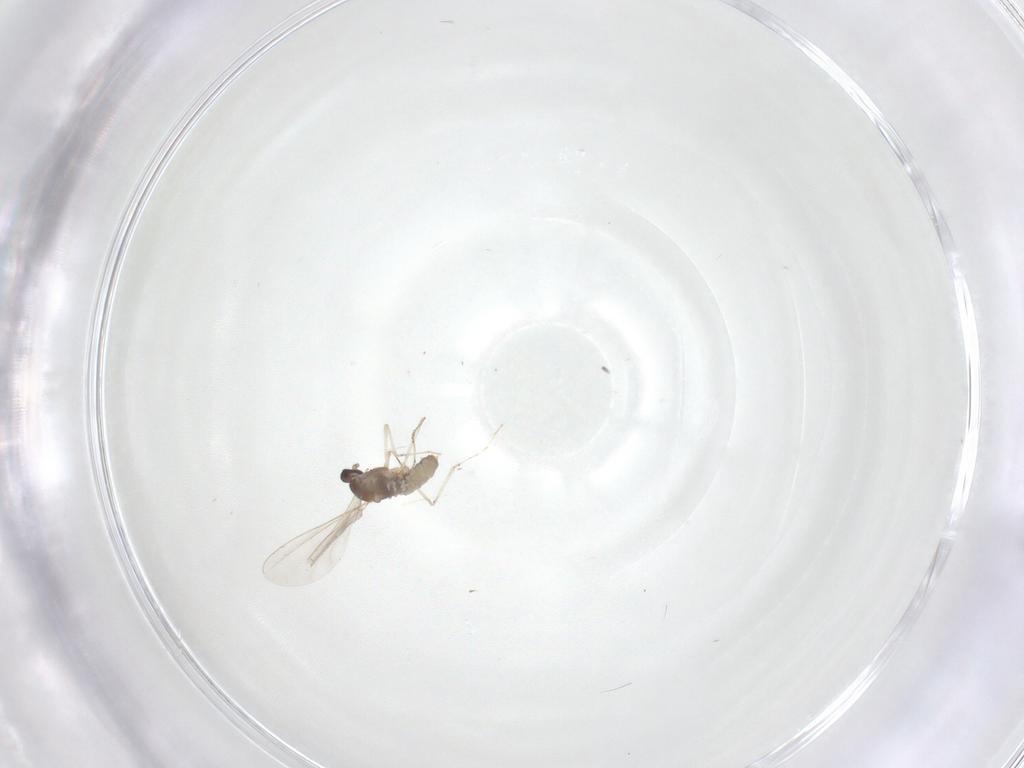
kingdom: Animalia
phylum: Arthropoda
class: Insecta
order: Diptera
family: Cecidomyiidae
